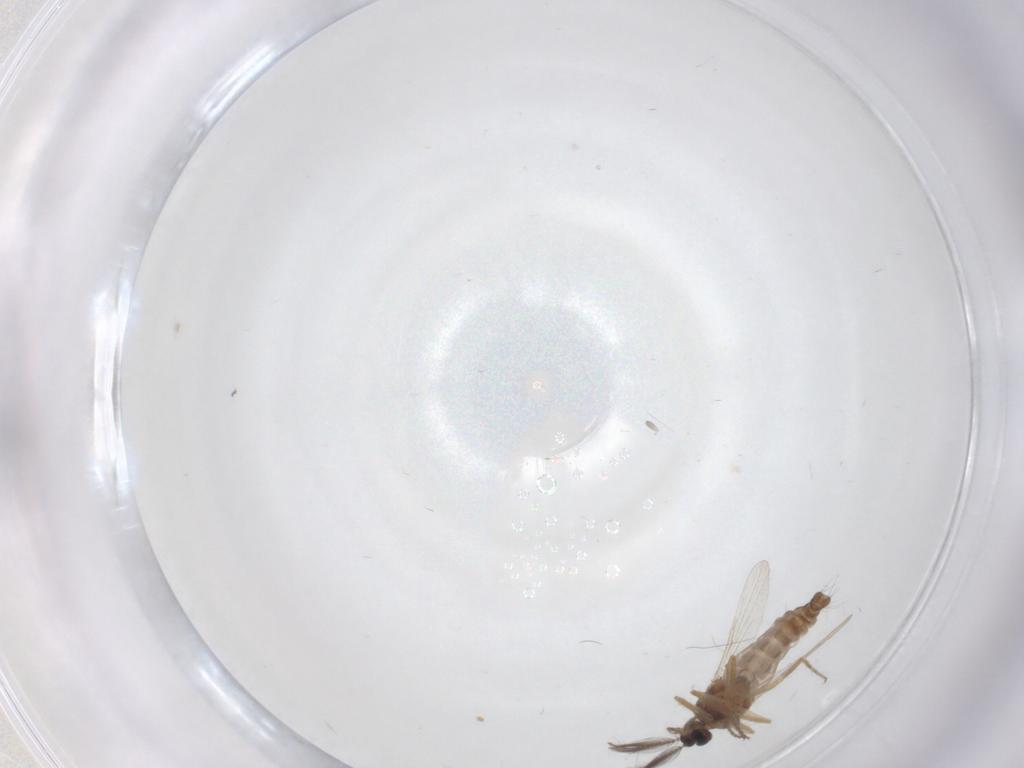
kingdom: Animalia
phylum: Arthropoda
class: Insecta
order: Diptera
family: Ceratopogonidae
